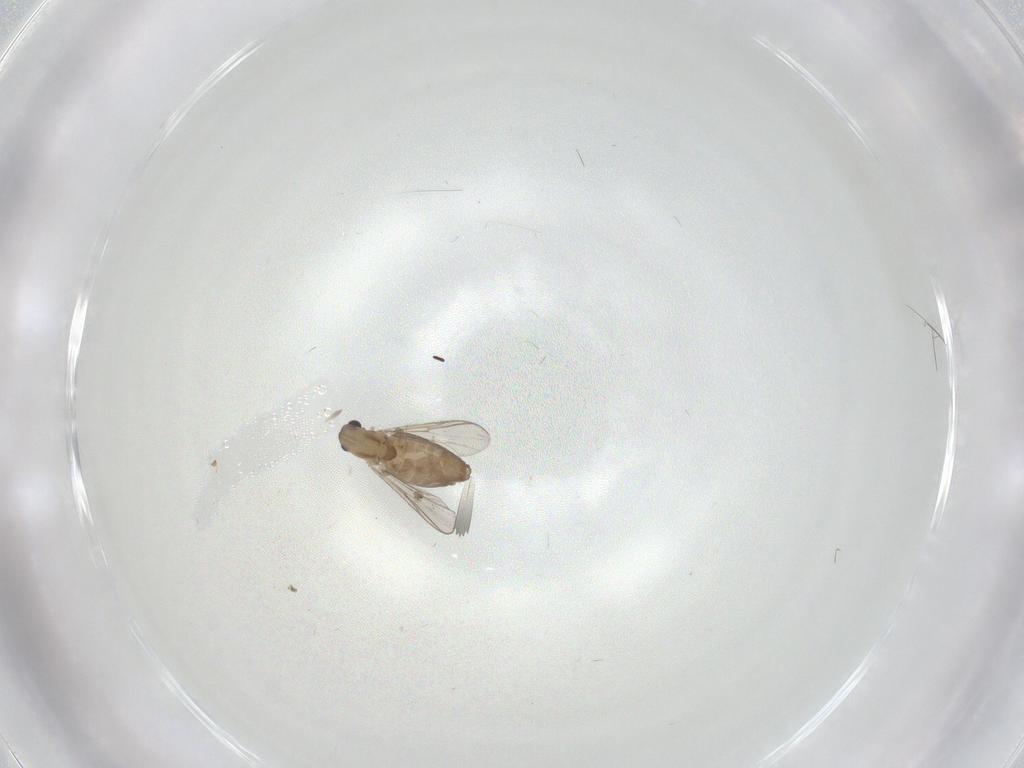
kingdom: Animalia
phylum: Arthropoda
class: Insecta
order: Diptera
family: Chironomidae
